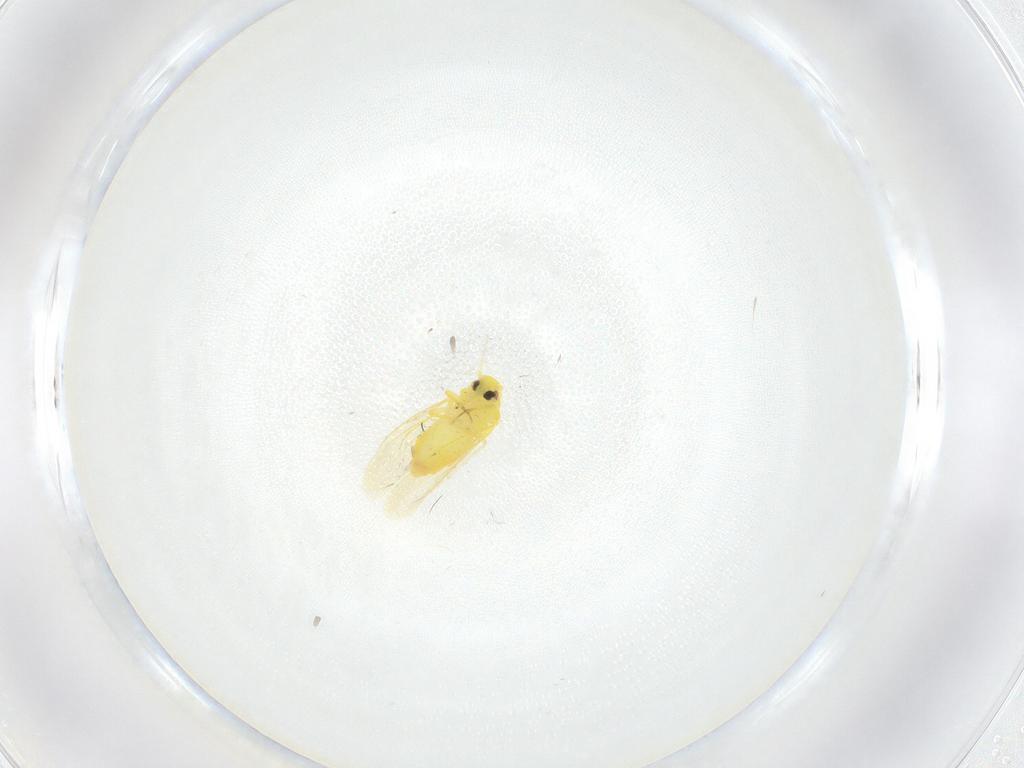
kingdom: Animalia
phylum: Arthropoda
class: Insecta
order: Hemiptera
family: Aleyrodidae
